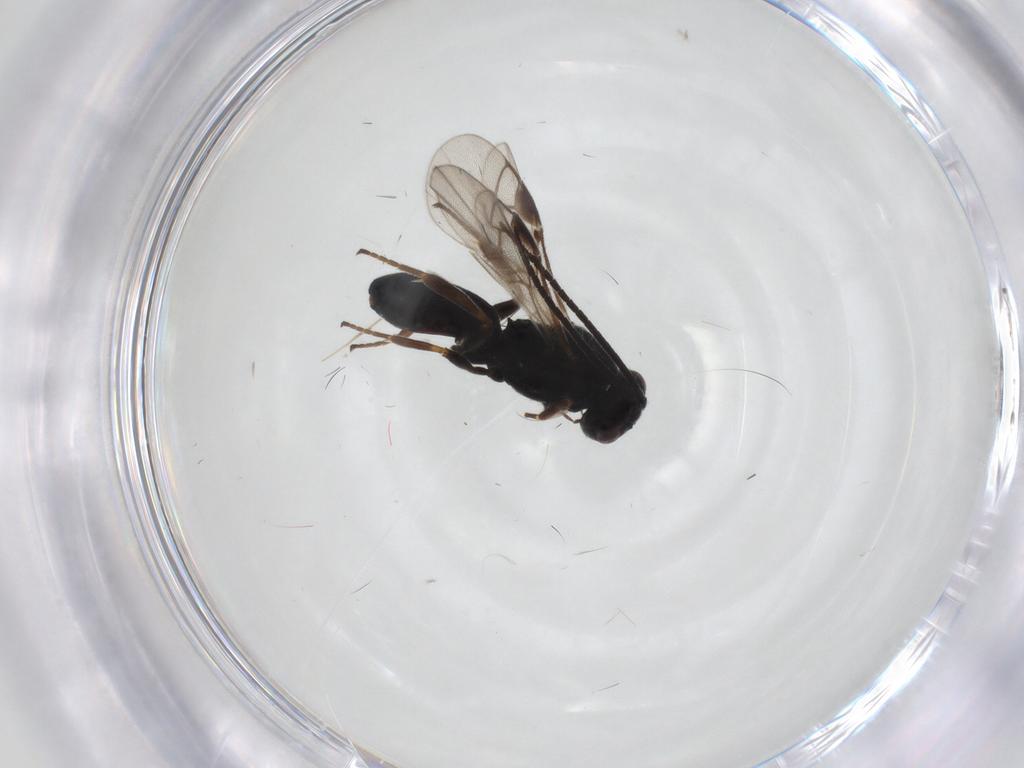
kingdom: Animalia
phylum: Arthropoda
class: Insecta
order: Hymenoptera
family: Braconidae
